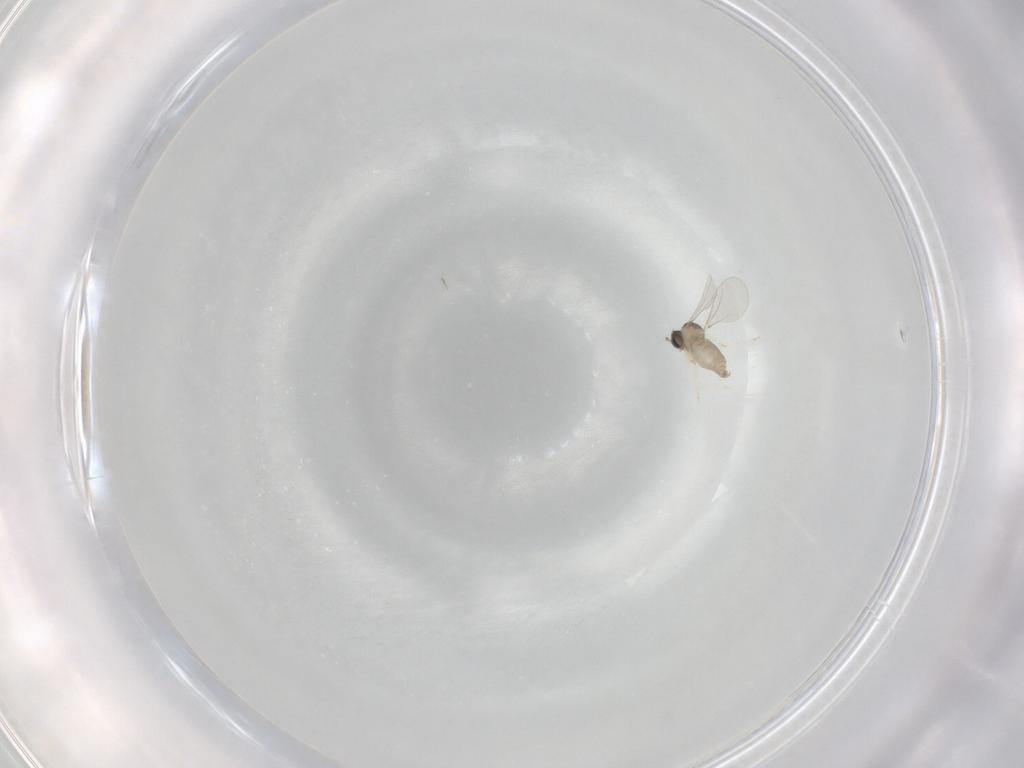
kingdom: Animalia
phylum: Arthropoda
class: Insecta
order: Diptera
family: Cecidomyiidae
